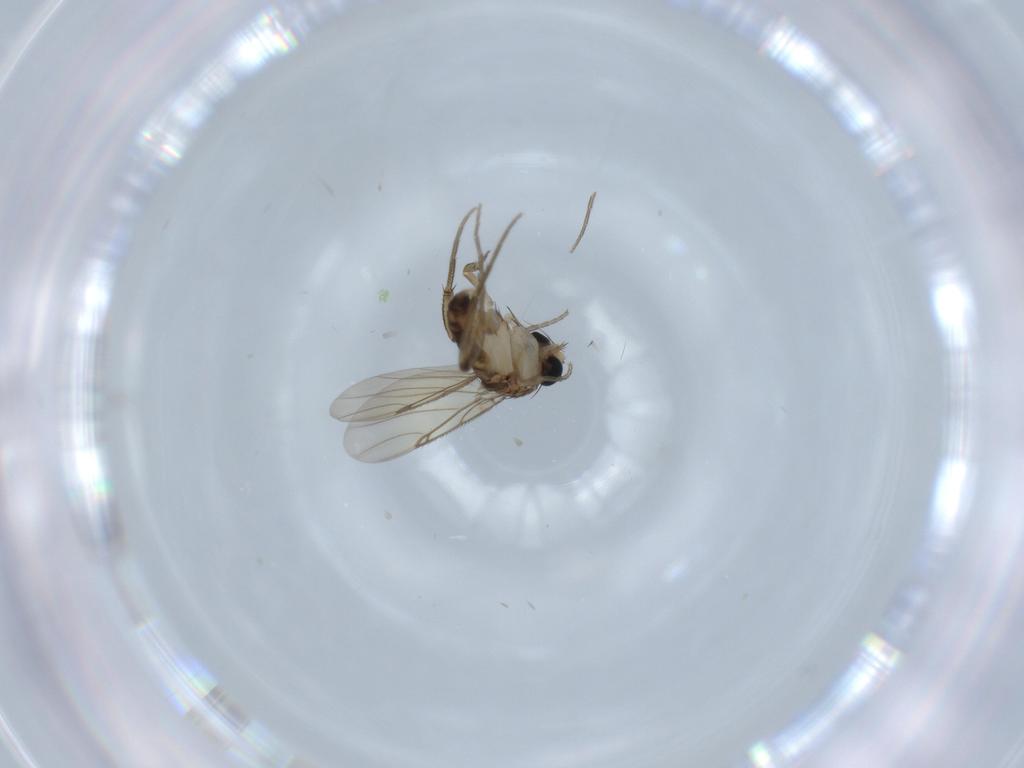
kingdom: Animalia
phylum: Arthropoda
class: Insecta
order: Diptera
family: Phoridae
